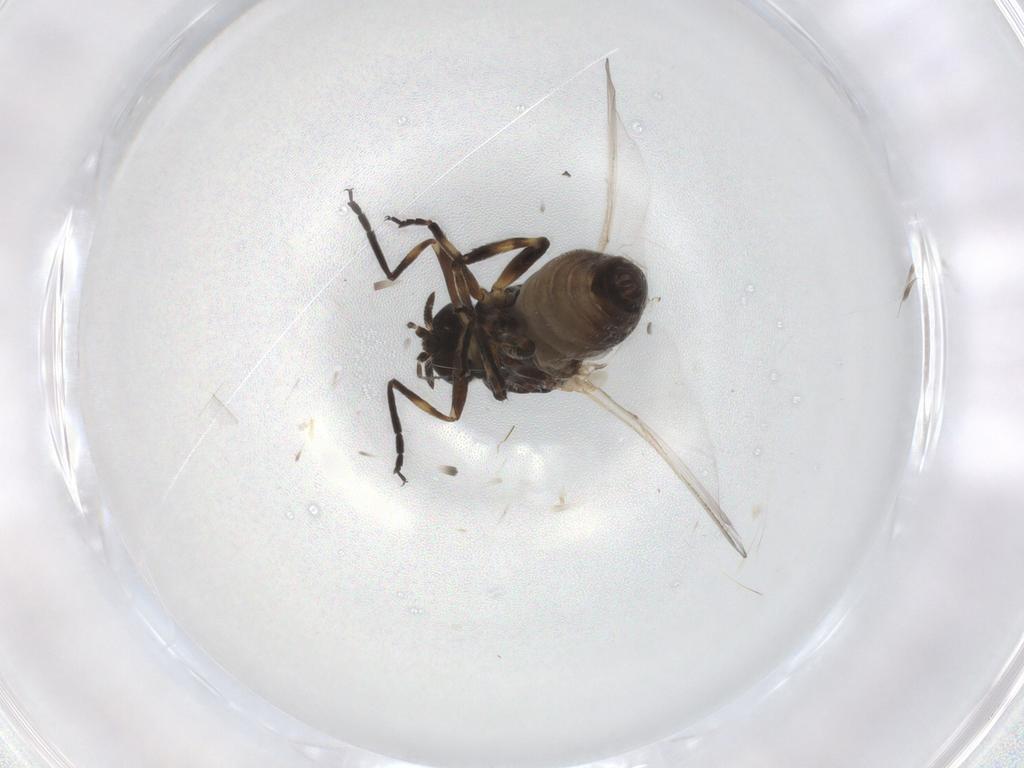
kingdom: Animalia
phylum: Arthropoda
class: Insecta
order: Diptera
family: Simuliidae
